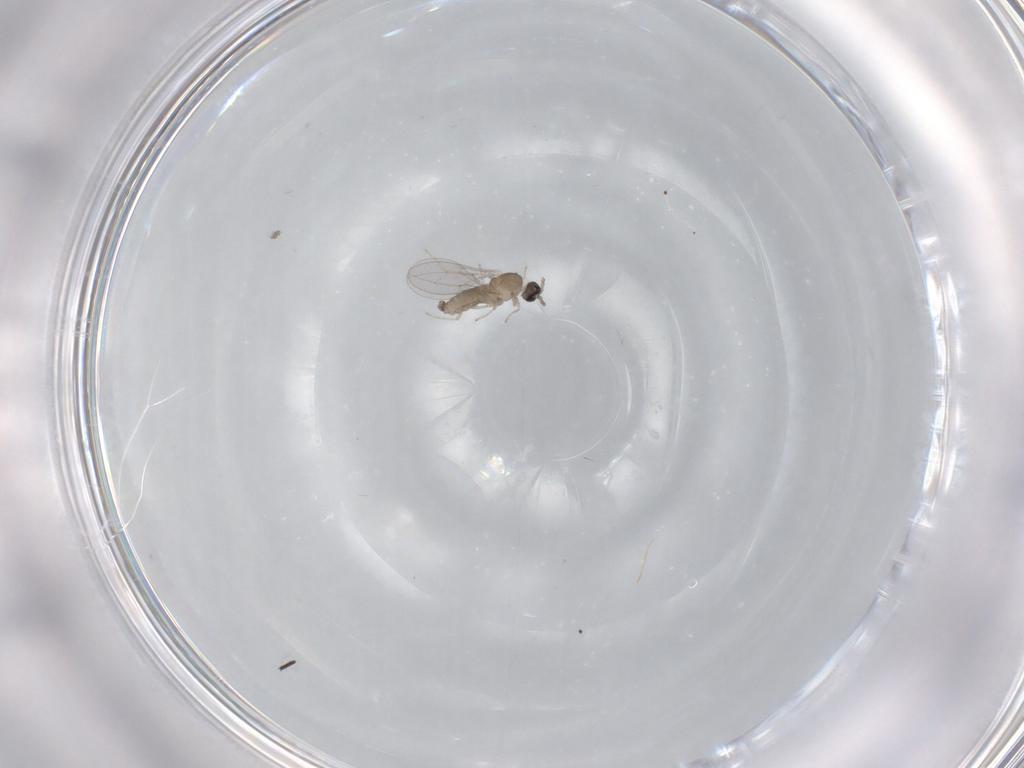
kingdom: Animalia
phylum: Arthropoda
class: Insecta
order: Diptera
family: Cecidomyiidae
